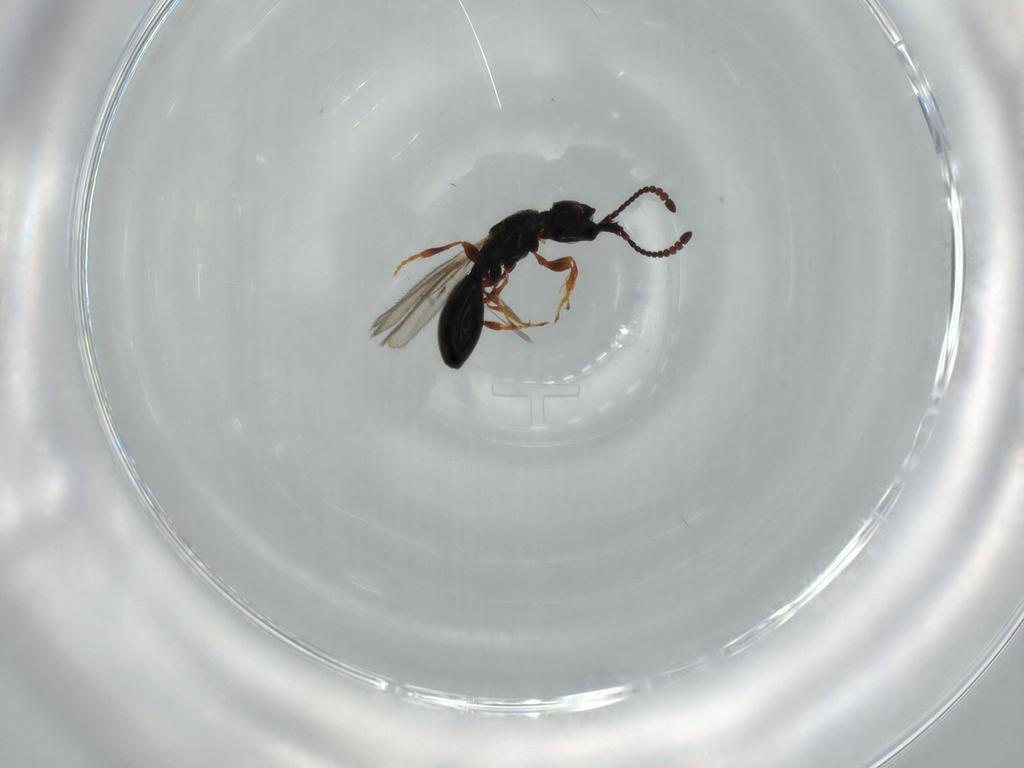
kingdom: Animalia
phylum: Arthropoda
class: Insecta
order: Hymenoptera
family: Diapriidae
